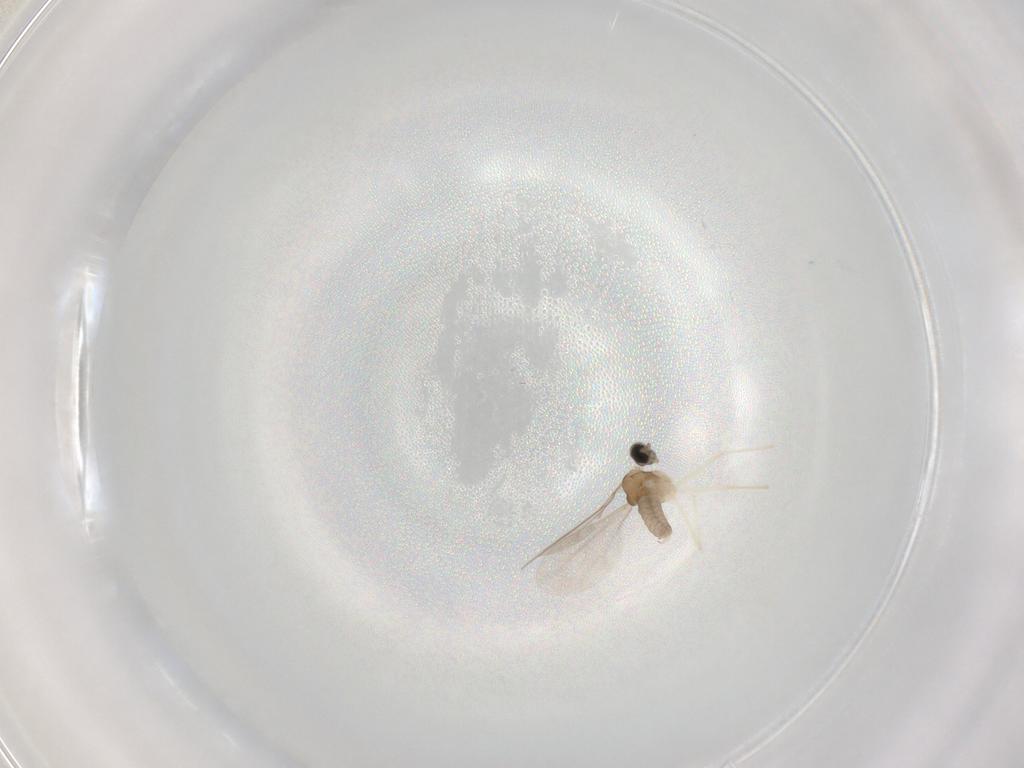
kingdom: Animalia
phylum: Arthropoda
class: Insecta
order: Diptera
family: Cecidomyiidae
